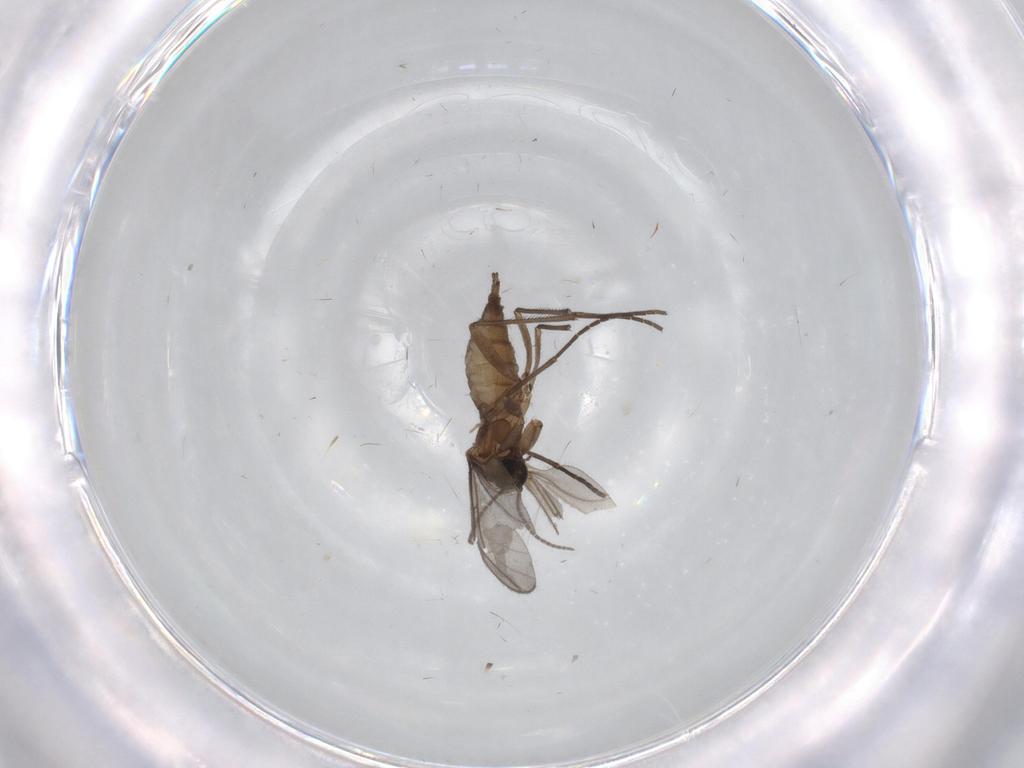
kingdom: Animalia
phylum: Arthropoda
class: Insecta
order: Diptera
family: Sciaridae
